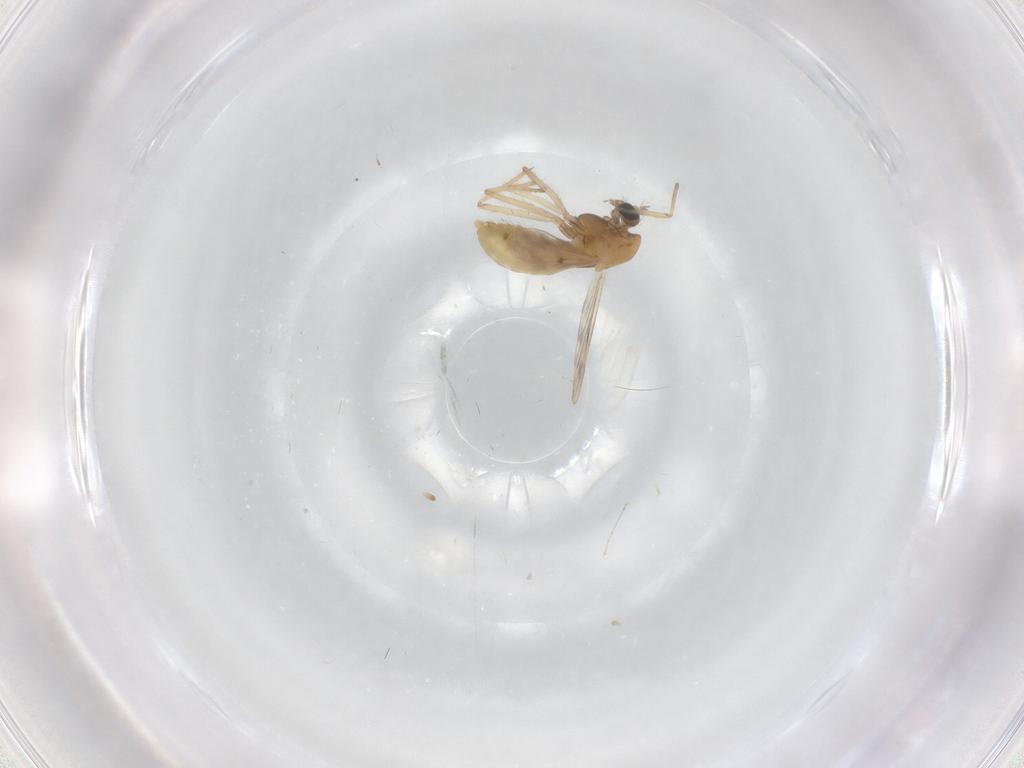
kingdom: Animalia
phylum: Arthropoda
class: Insecta
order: Diptera
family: Chironomidae
